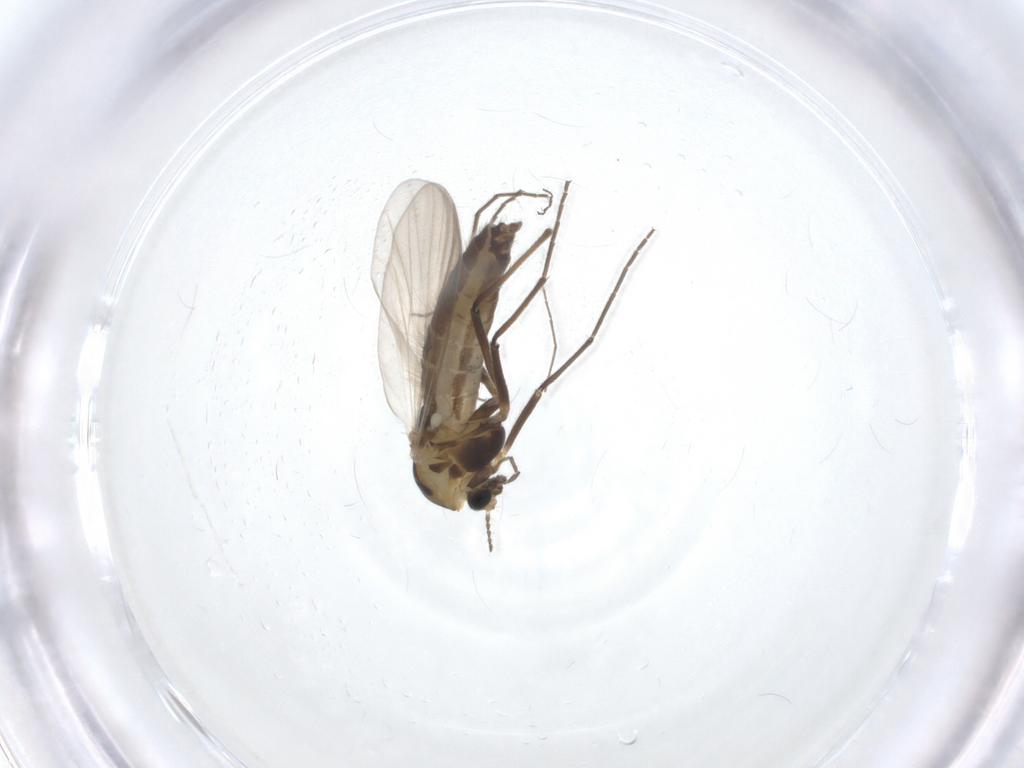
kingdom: Animalia
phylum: Arthropoda
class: Insecta
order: Diptera
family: Chironomidae
